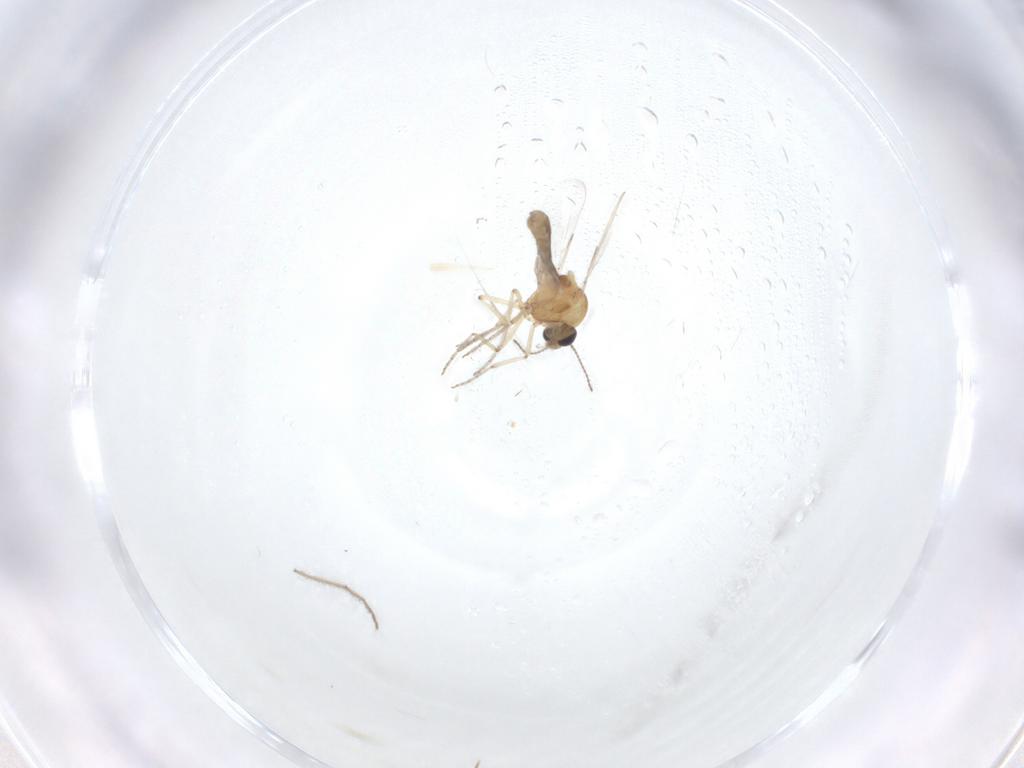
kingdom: Animalia
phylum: Arthropoda
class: Insecta
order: Diptera
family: Ceratopogonidae
